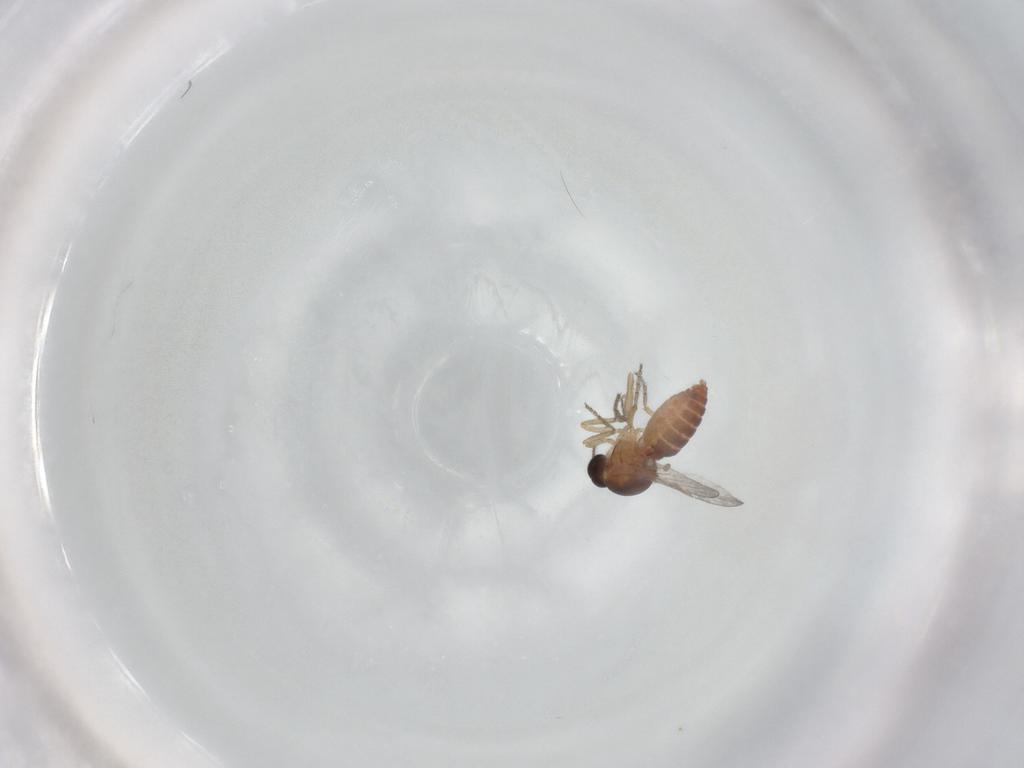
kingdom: Animalia
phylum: Arthropoda
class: Insecta
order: Diptera
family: Ceratopogonidae
